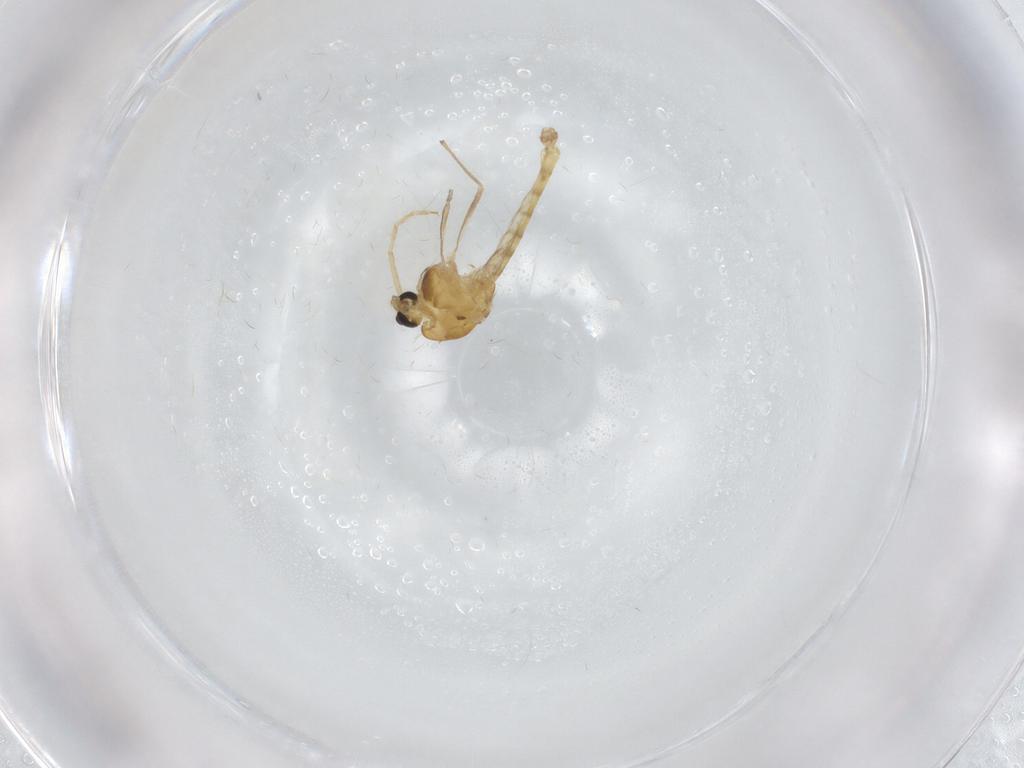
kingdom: Animalia
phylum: Arthropoda
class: Insecta
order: Diptera
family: Chironomidae
